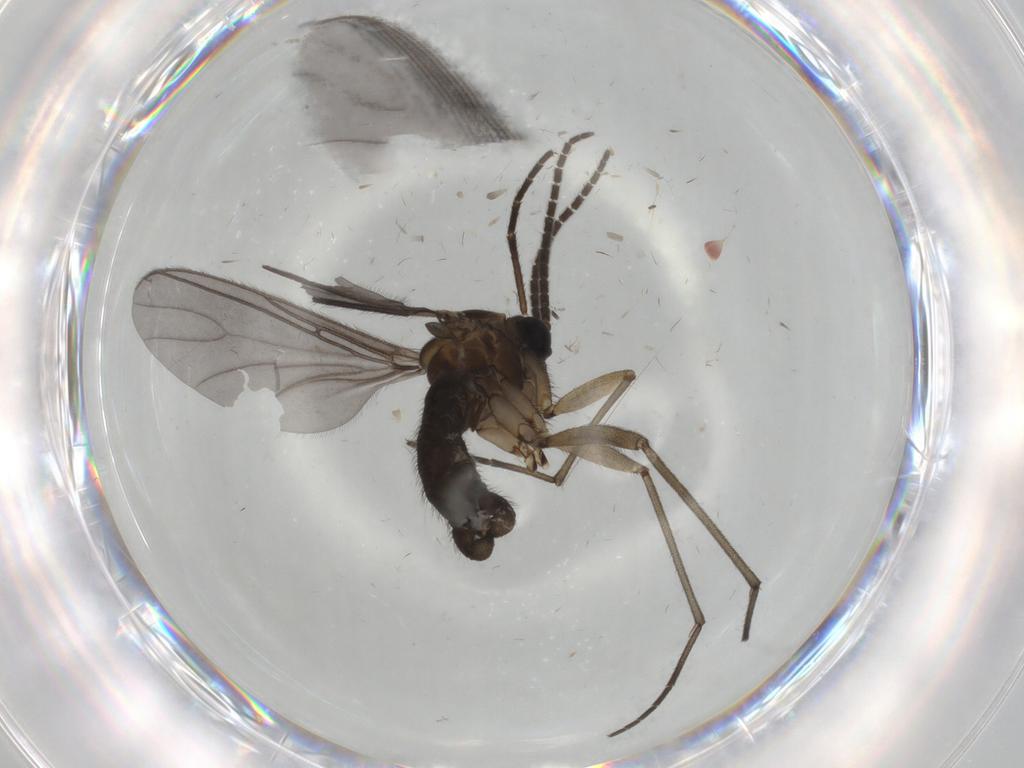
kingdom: Animalia
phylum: Arthropoda
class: Insecta
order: Diptera
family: Sciaridae
